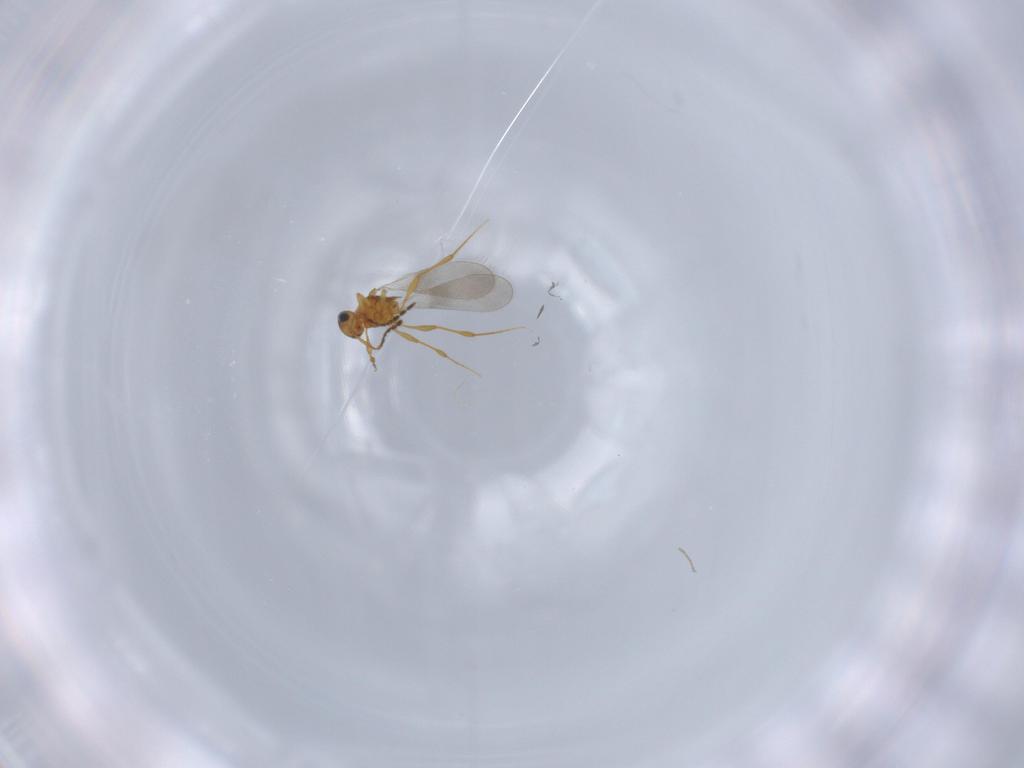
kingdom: Animalia
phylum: Arthropoda
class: Insecta
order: Hymenoptera
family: Platygastridae
